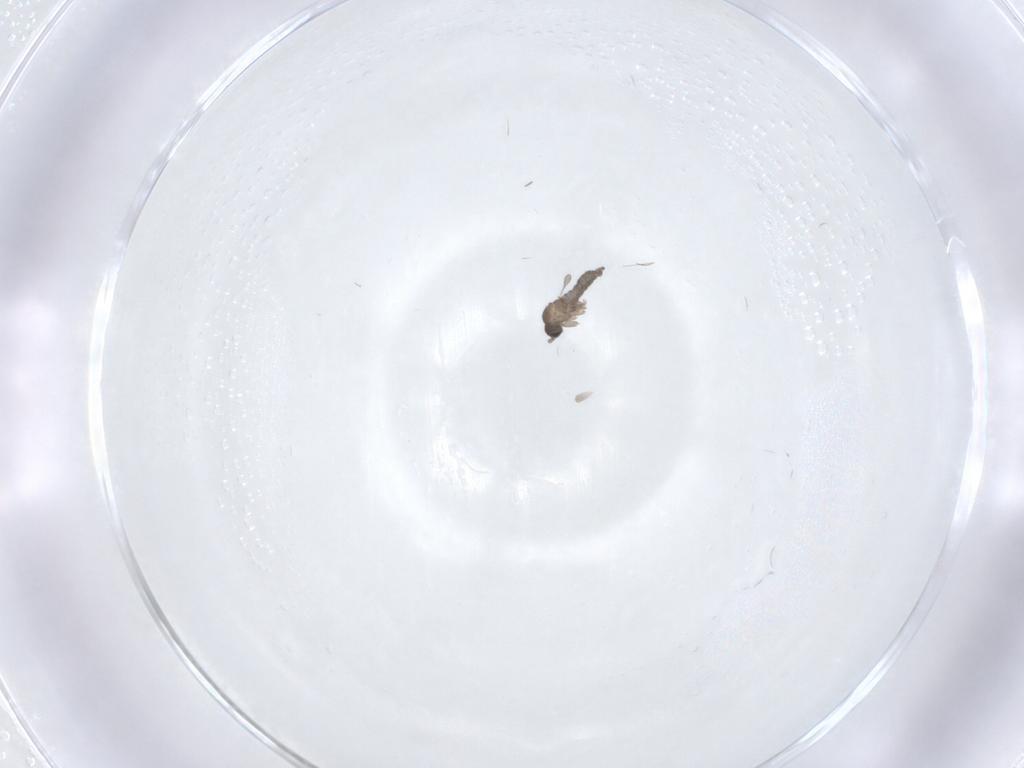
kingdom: Animalia
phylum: Arthropoda
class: Insecta
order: Diptera
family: Sciaridae
